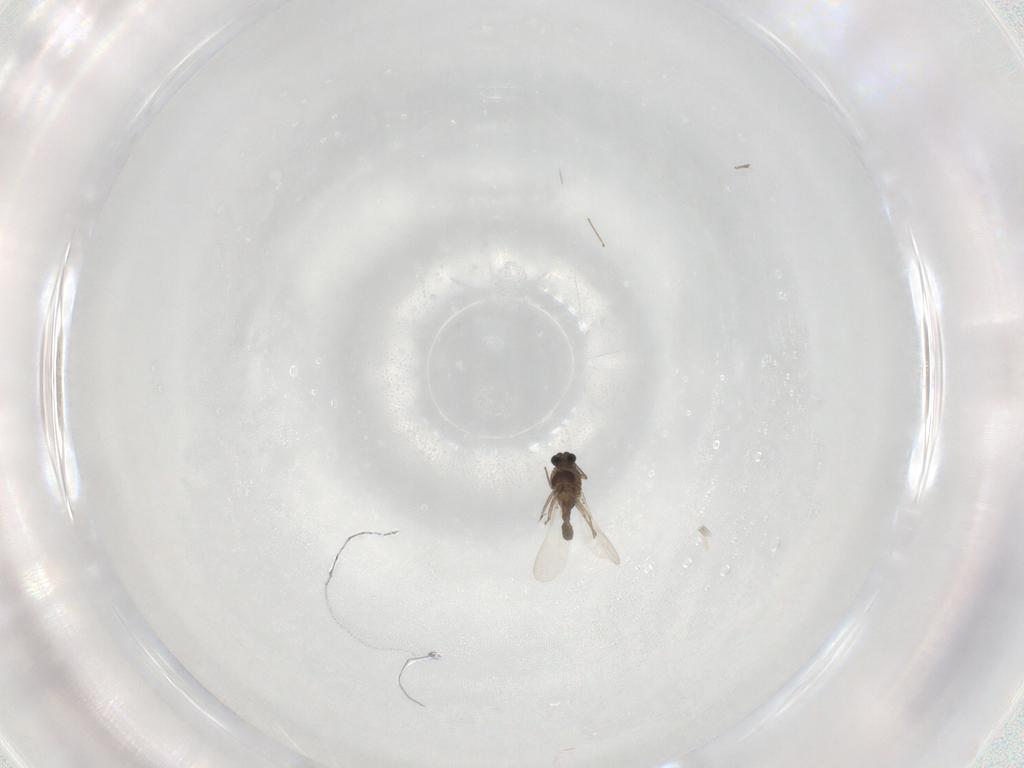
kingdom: Animalia
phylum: Arthropoda
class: Insecta
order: Diptera
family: Chironomidae
